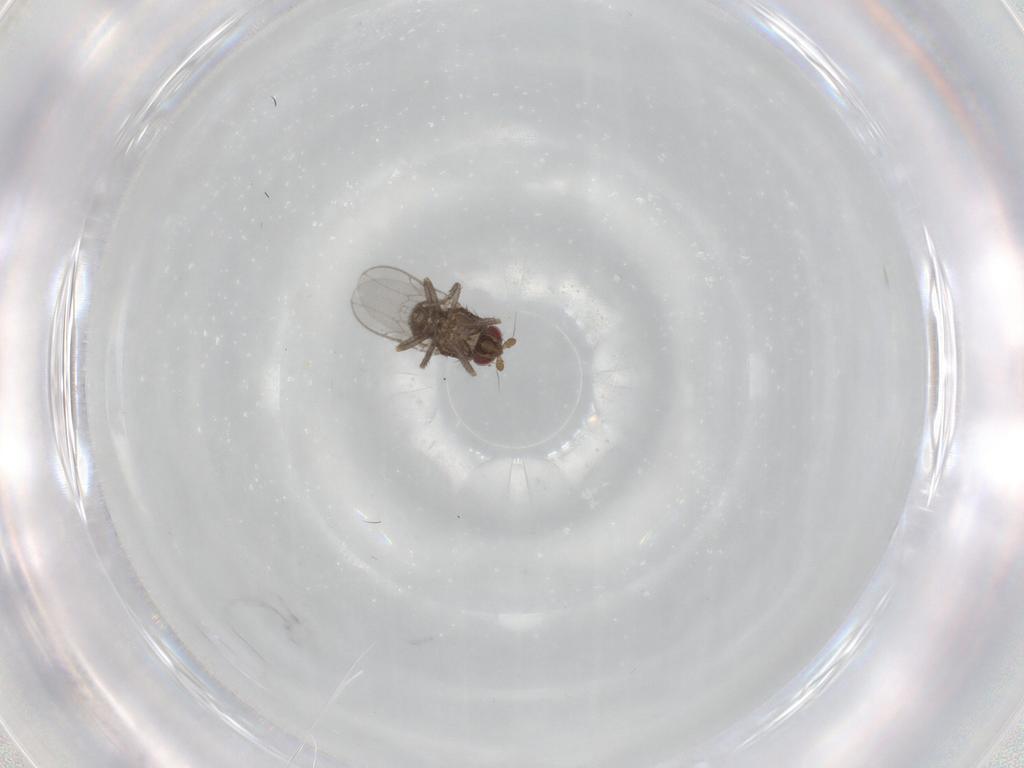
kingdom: Animalia
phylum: Arthropoda
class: Insecta
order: Diptera
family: Sphaeroceridae
